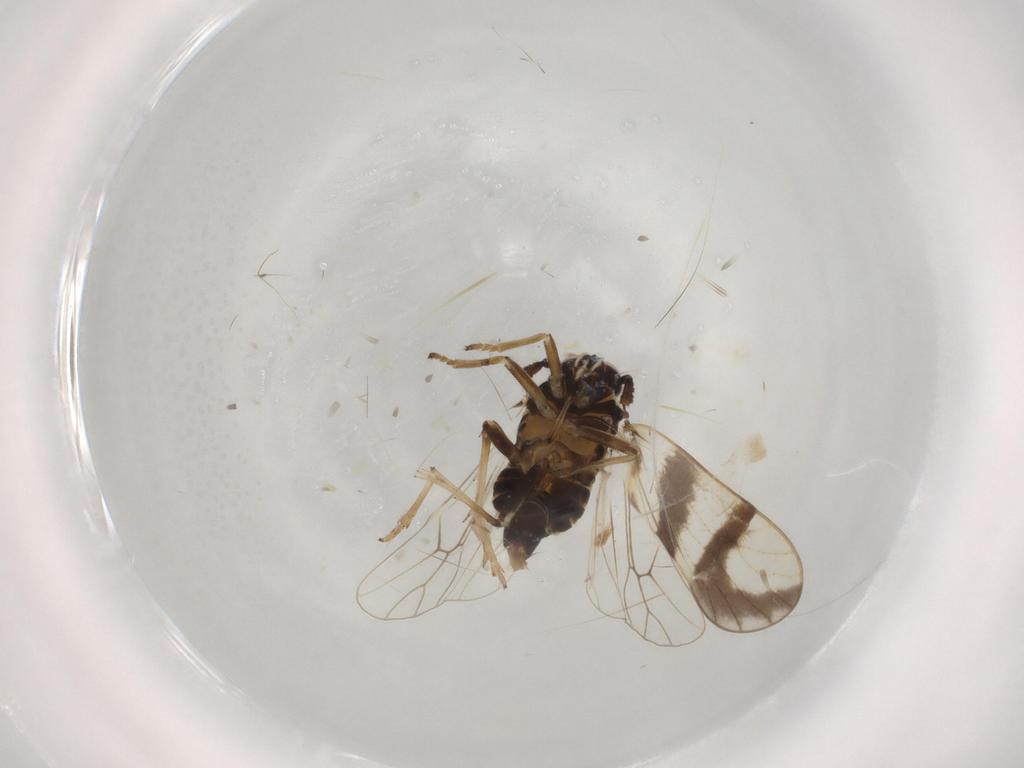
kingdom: Animalia
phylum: Arthropoda
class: Insecta
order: Hemiptera
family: Delphacidae
